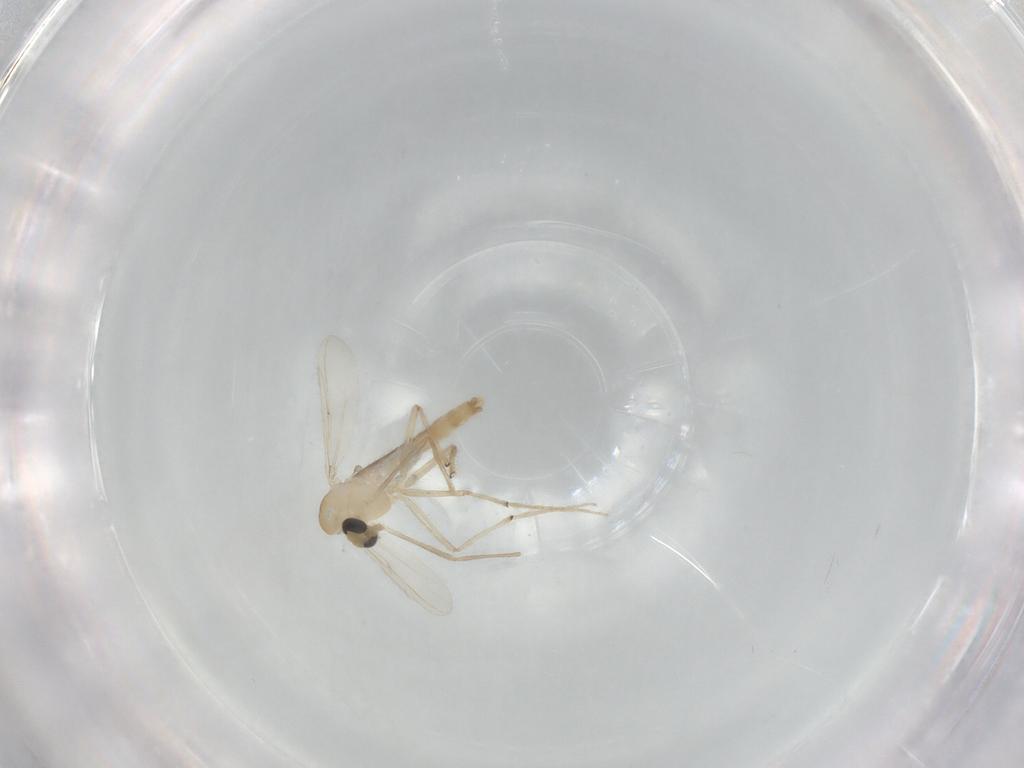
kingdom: Animalia
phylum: Arthropoda
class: Insecta
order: Diptera
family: Chironomidae
